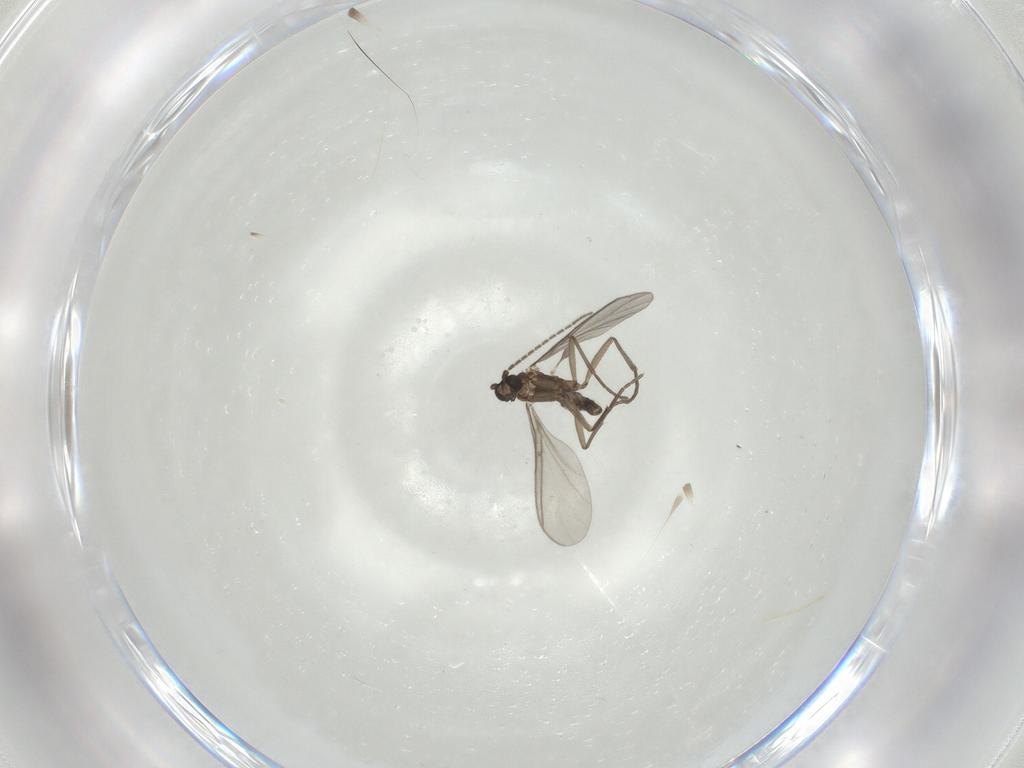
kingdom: Animalia
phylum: Arthropoda
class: Insecta
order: Diptera
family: Sciaridae
